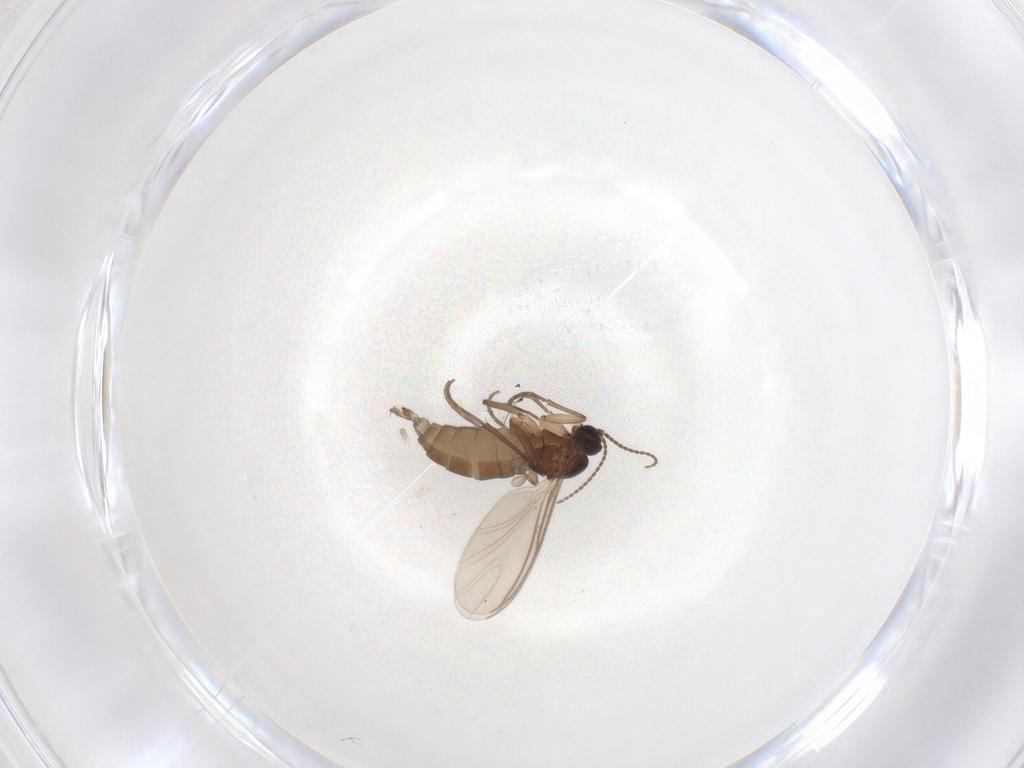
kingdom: Animalia
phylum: Arthropoda
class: Insecta
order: Diptera
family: Sciaridae
